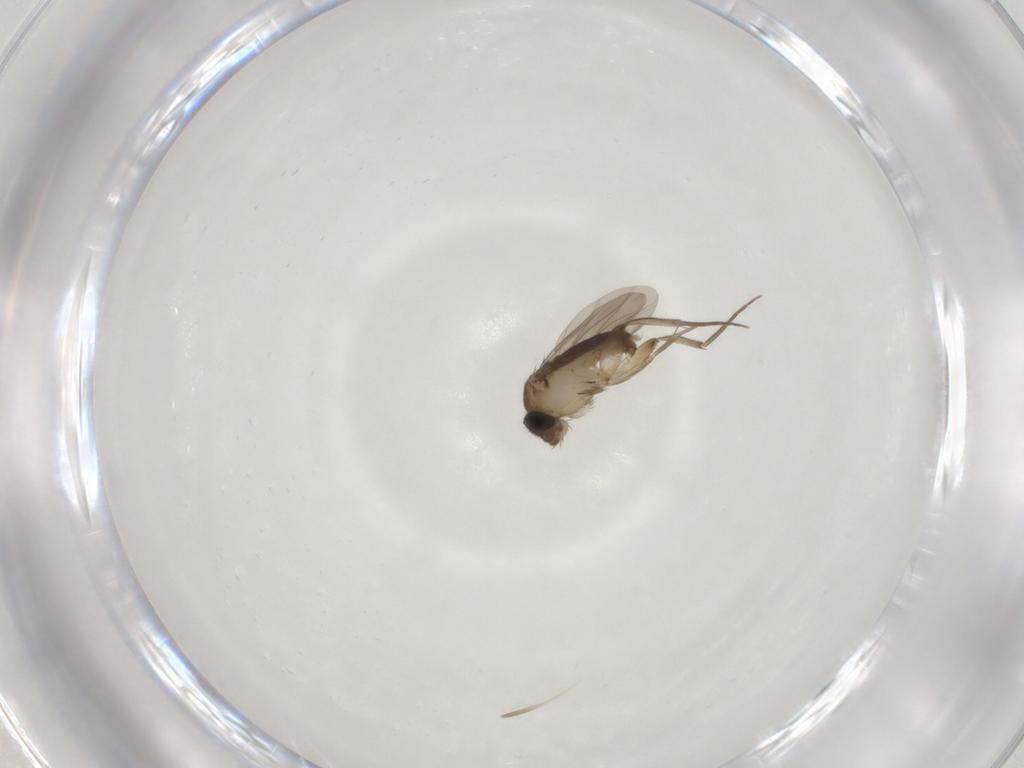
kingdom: Animalia
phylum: Arthropoda
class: Insecta
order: Diptera
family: Phoridae
